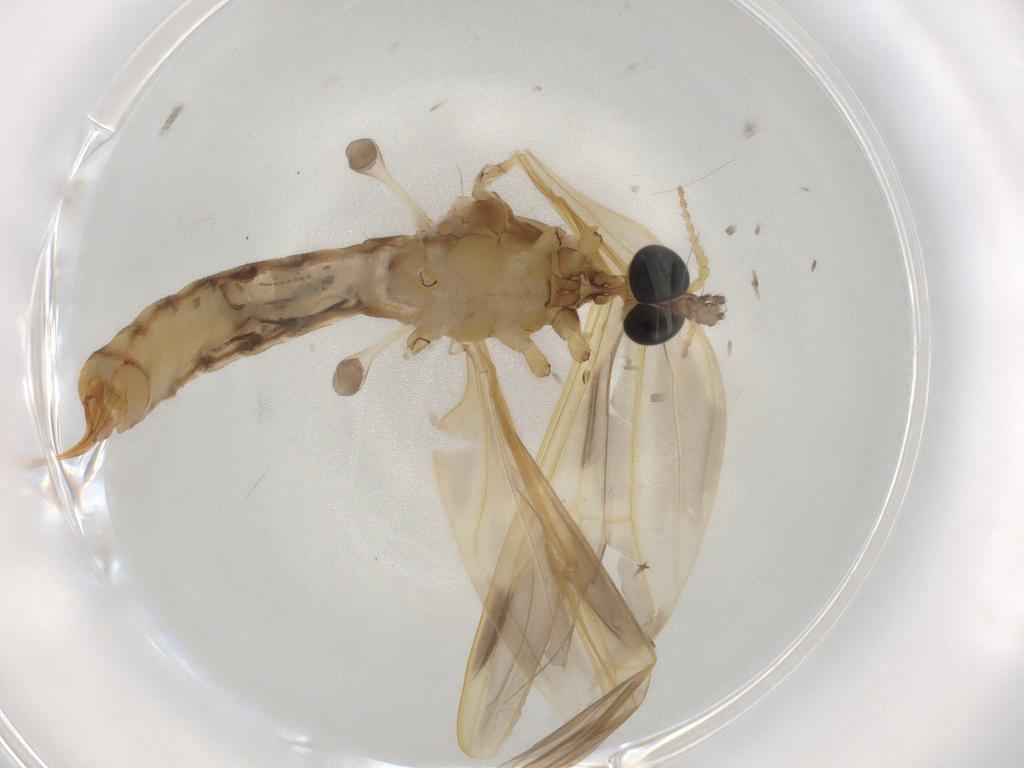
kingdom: Animalia
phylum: Arthropoda
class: Insecta
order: Diptera
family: Limoniidae
